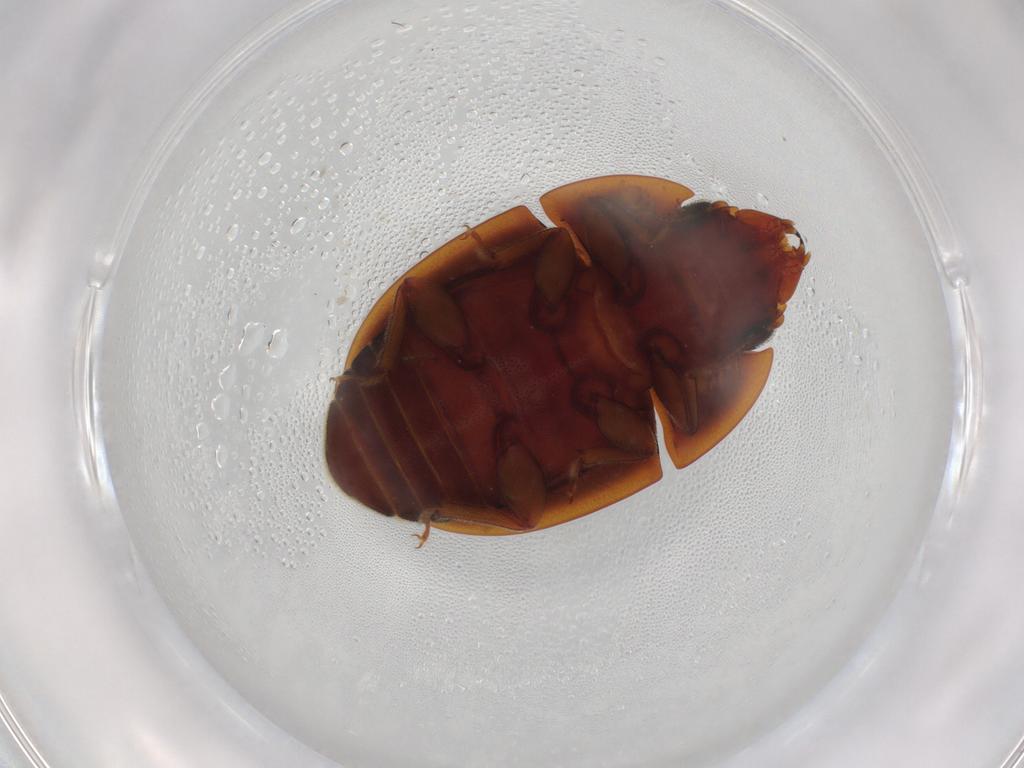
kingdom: Animalia
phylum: Arthropoda
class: Insecta
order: Coleoptera
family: Nitidulidae
